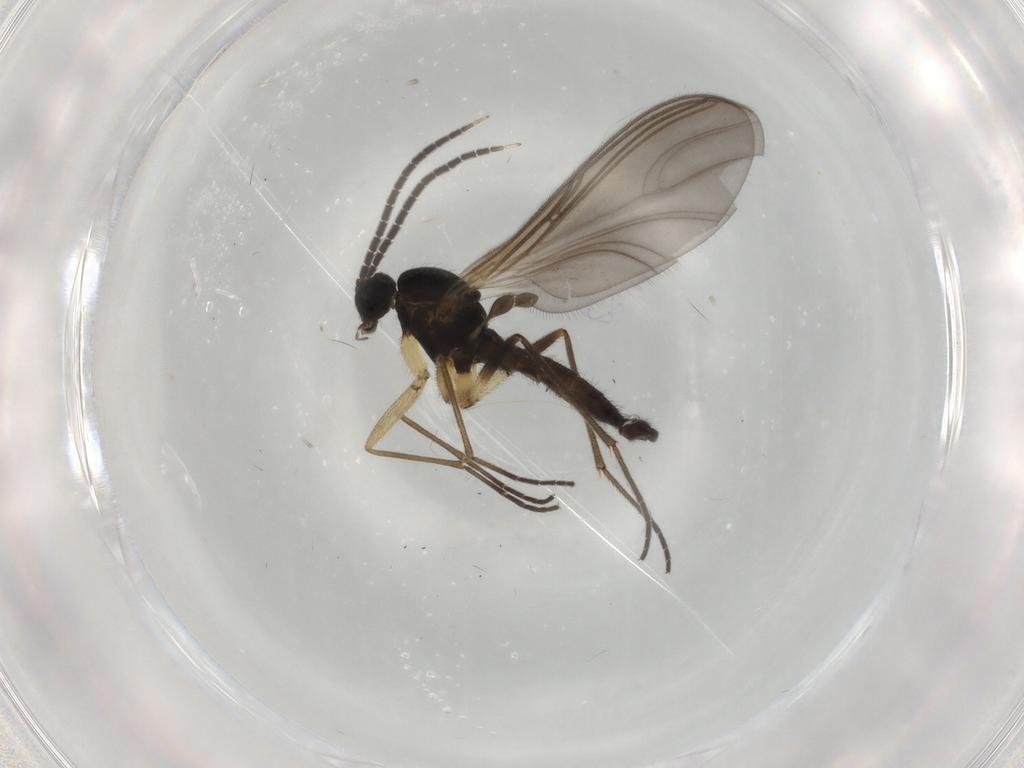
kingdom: Animalia
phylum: Arthropoda
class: Insecta
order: Diptera
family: Sciaridae
